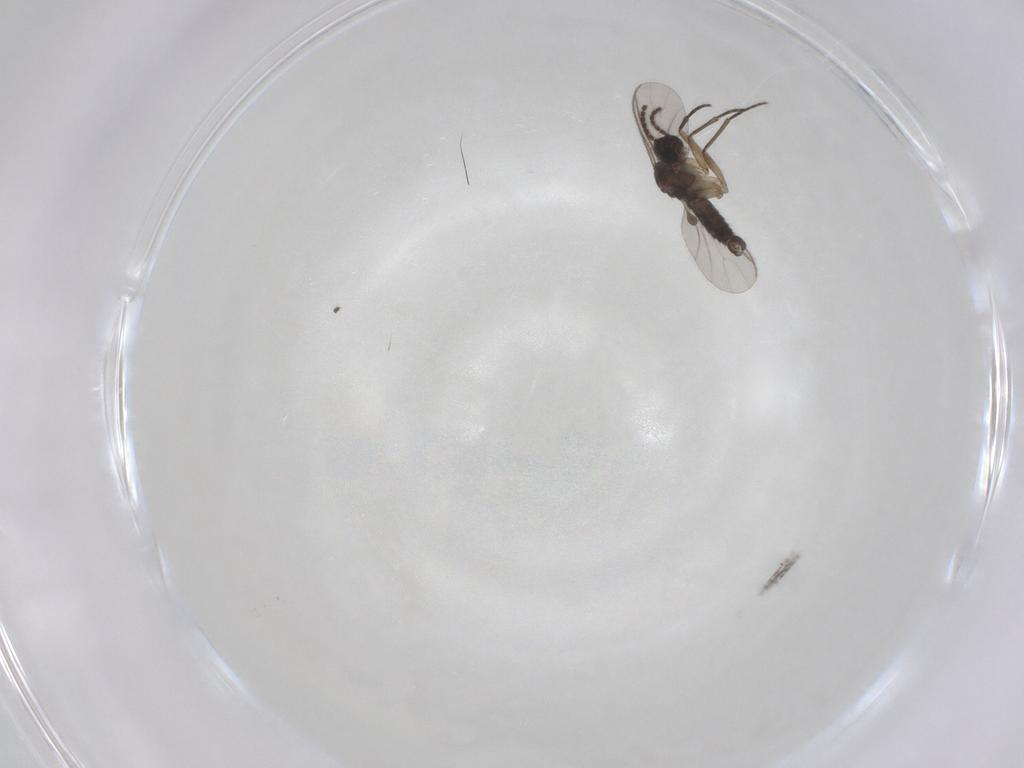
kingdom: Animalia
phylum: Arthropoda
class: Insecta
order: Diptera
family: Sciaridae
